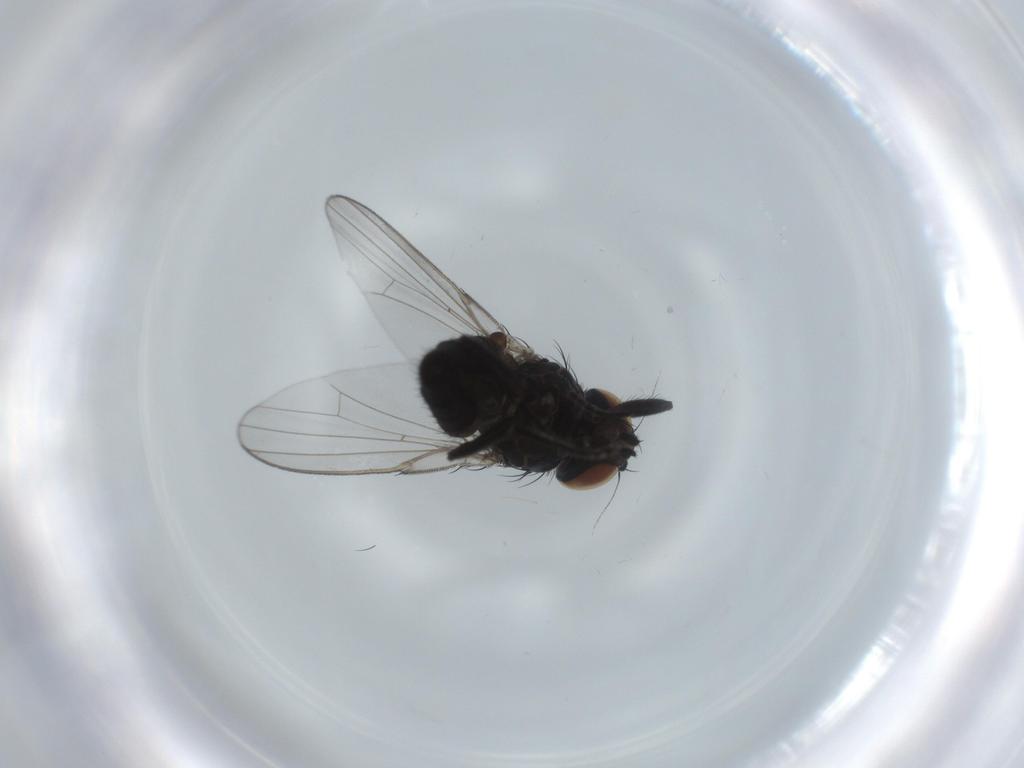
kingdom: Animalia
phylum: Arthropoda
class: Insecta
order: Diptera
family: Milichiidae
